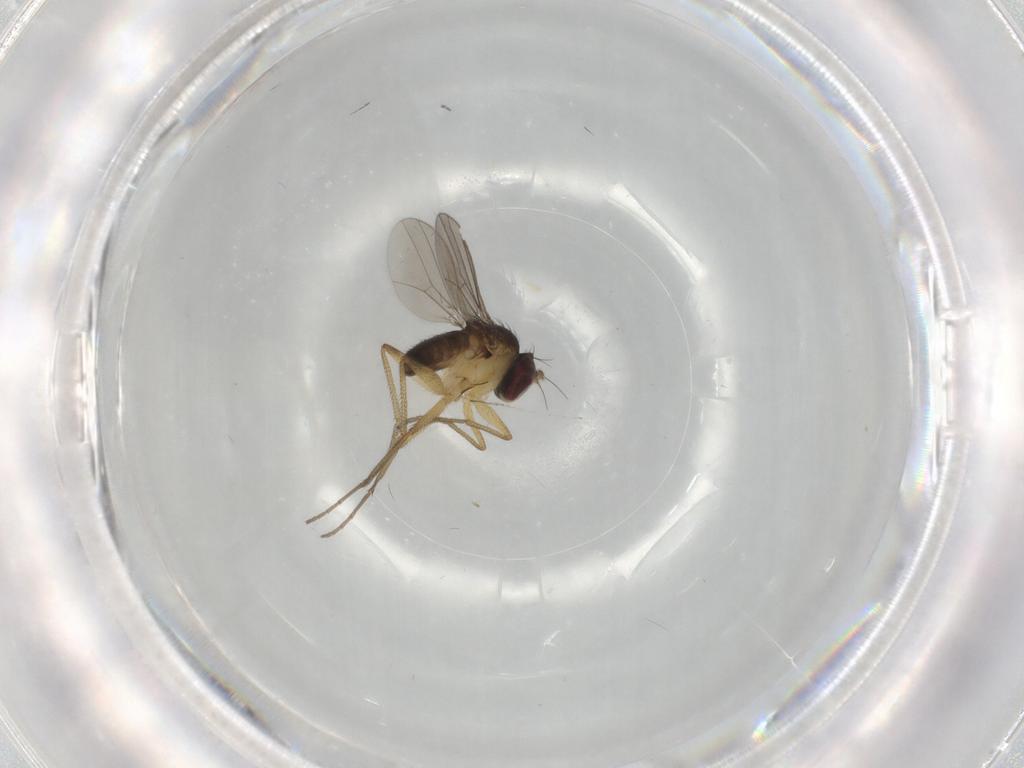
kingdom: Animalia
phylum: Arthropoda
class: Insecta
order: Diptera
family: Dolichopodidae
